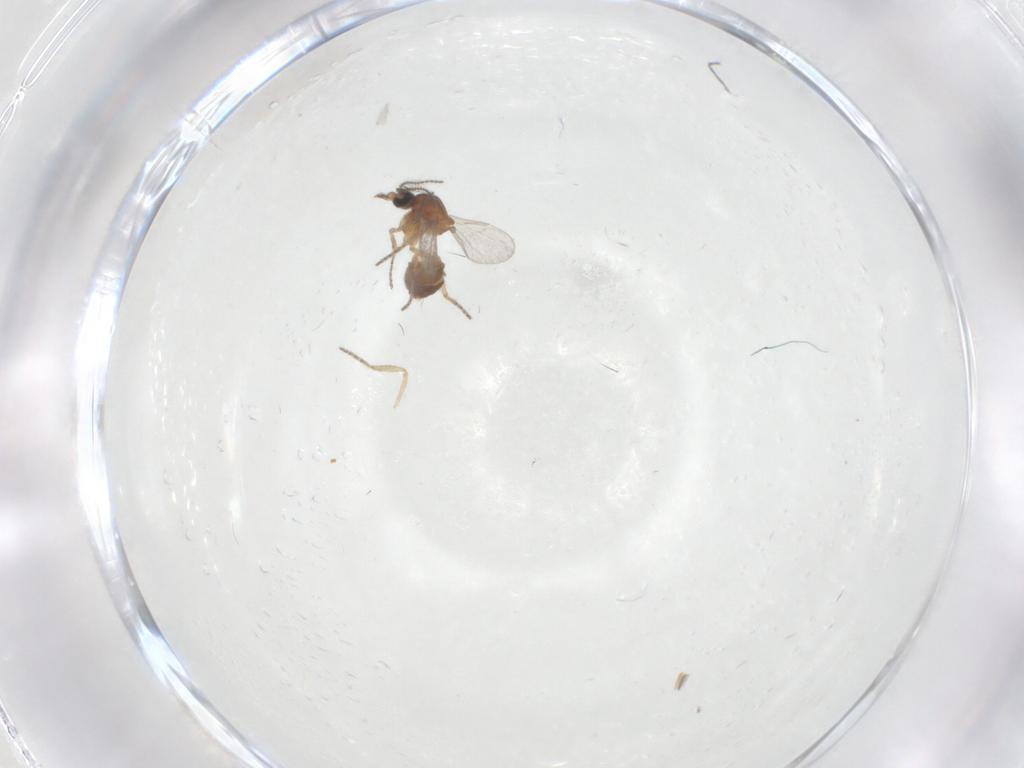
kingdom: Animalia
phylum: Arthropoda
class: Insecta
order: Diptera
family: Ceratopogonidae
